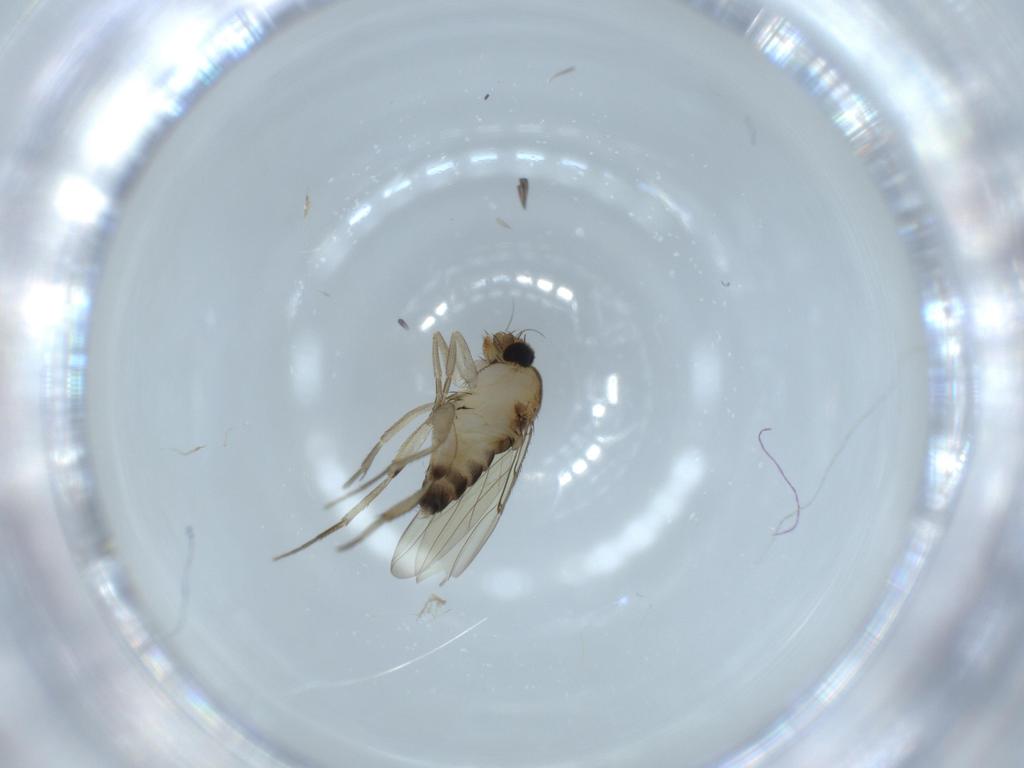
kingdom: Animalia
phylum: Arthropoda
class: Insecta
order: Diptera
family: Phoridae
